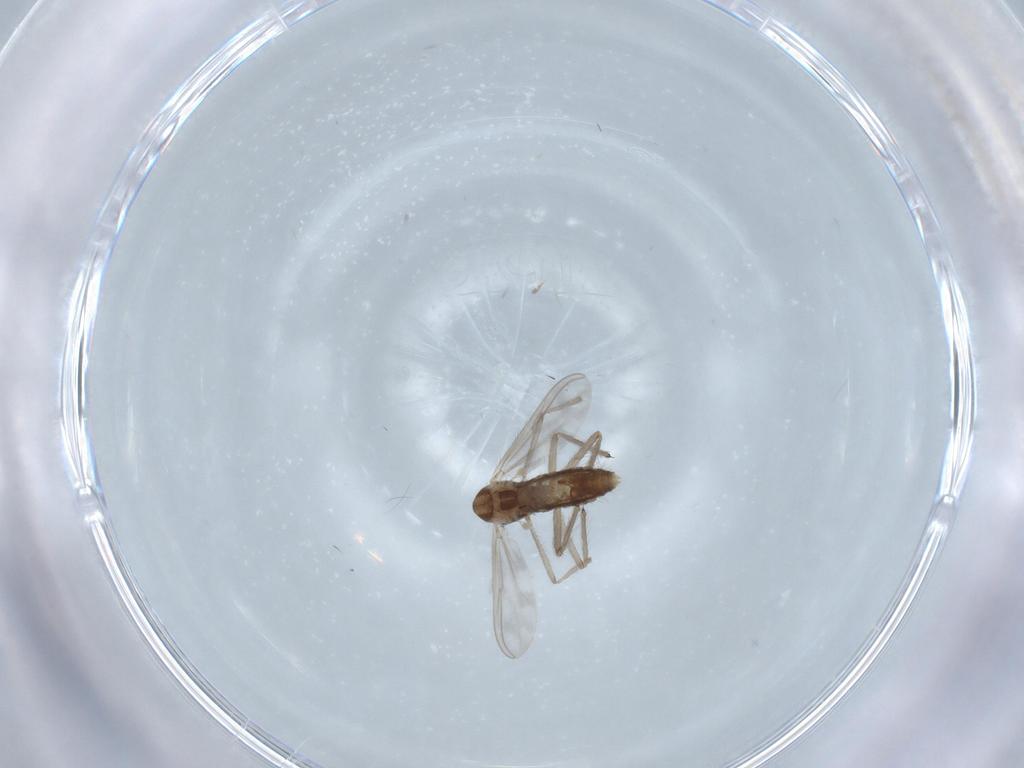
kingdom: Animalia
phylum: Arthropoda
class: Insecta
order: Diptera
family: Chironomidae
